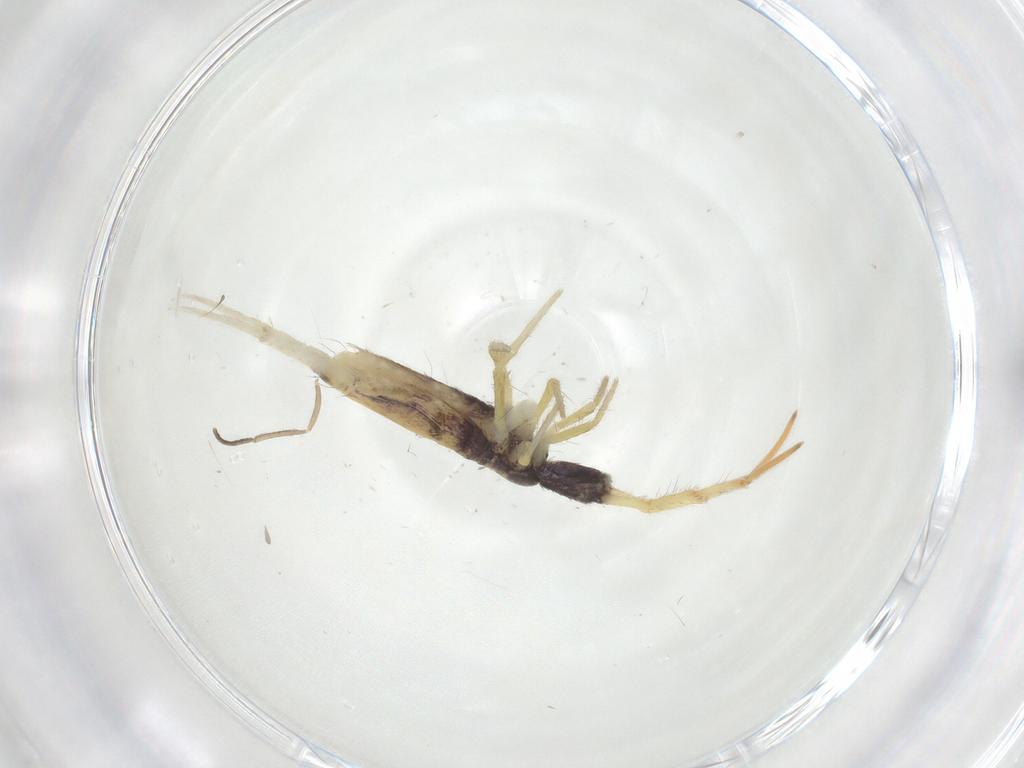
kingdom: Animalia
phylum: Arthropoda
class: Collembola
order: Entomobryomorpha
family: Entomobryidae
